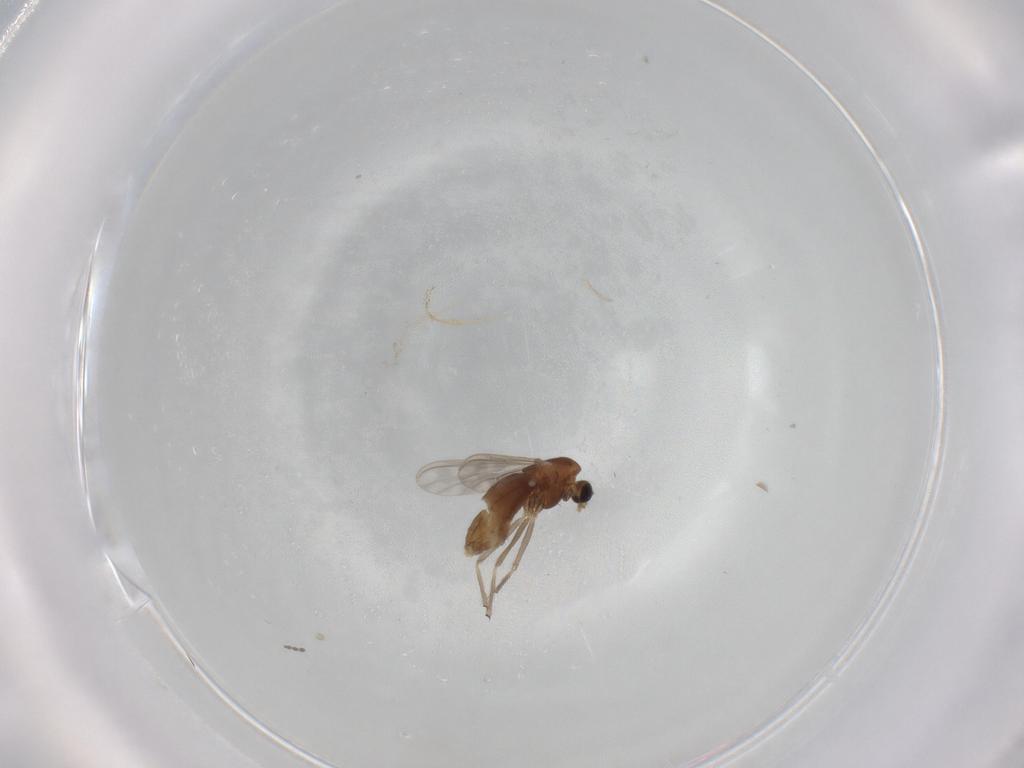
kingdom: Animalia
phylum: Arthropoda
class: Insecta
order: Diptera
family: Chironomidae
